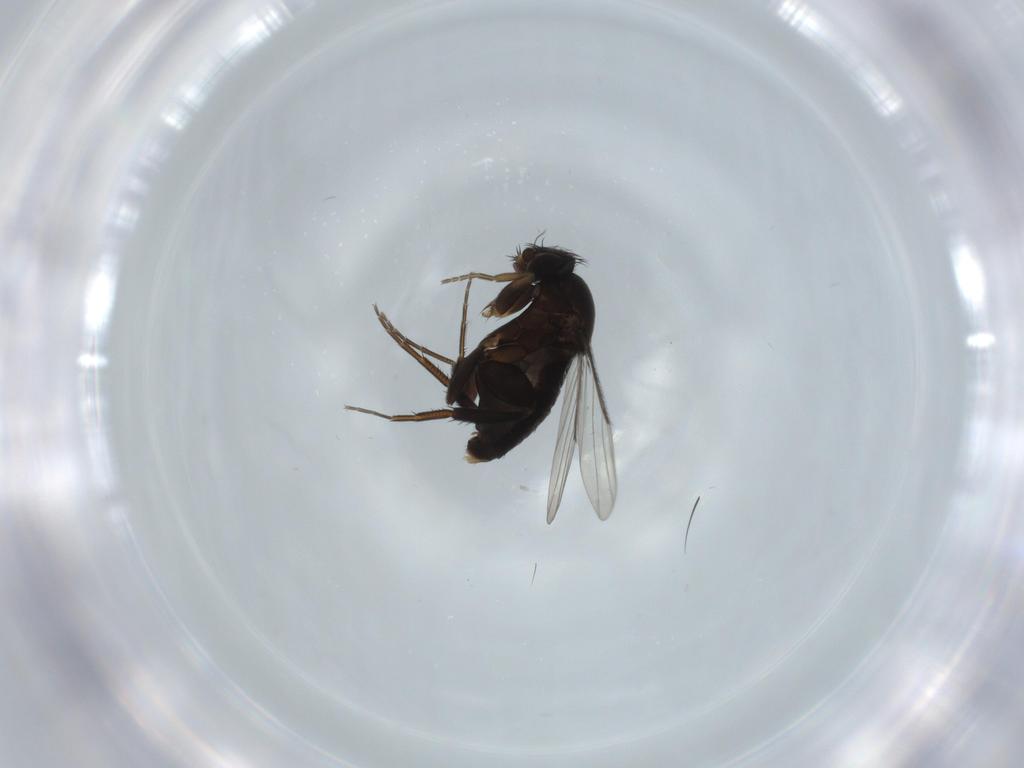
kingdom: Animalia
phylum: Arthropoda
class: Insecta
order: Diptera
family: Phoridae
